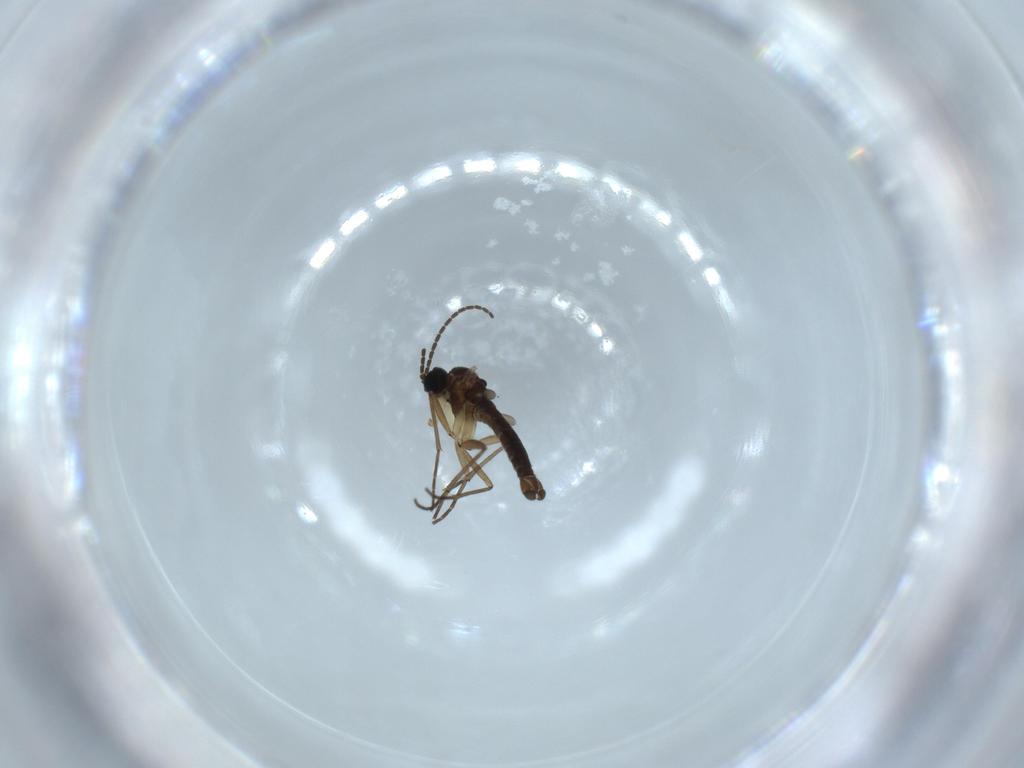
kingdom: Animalia
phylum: Arthropoda
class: Insecta
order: Diptera
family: Sciaridae
